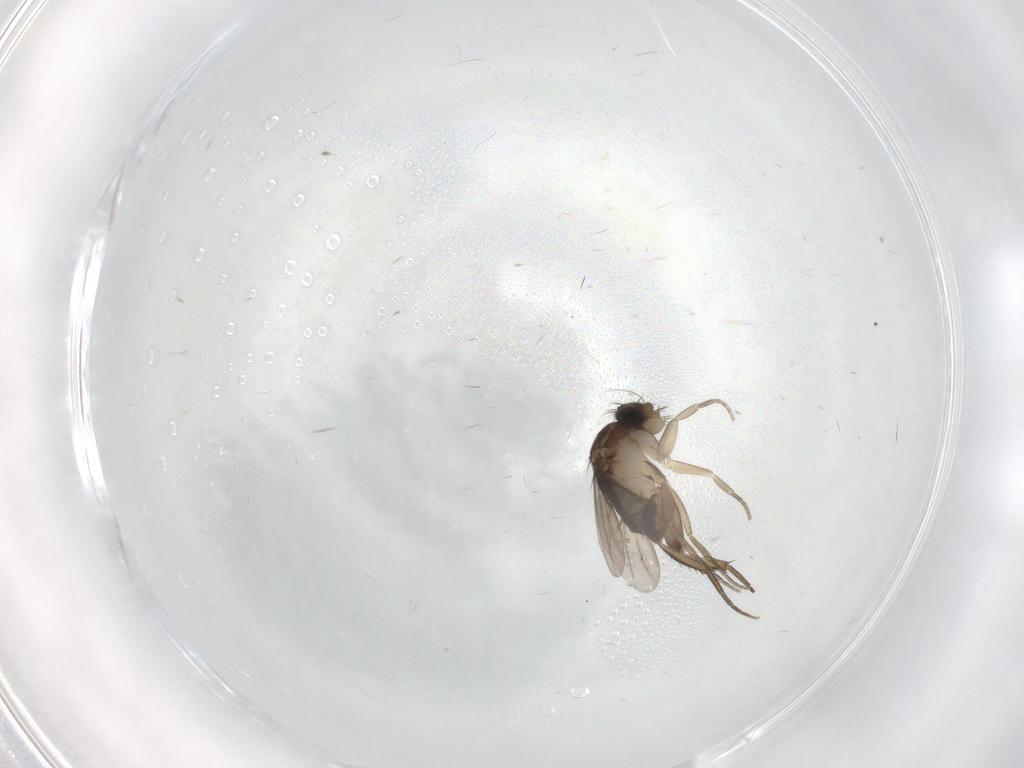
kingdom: Animalia
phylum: Arthropoda
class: Insecta
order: Diptera
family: Phoridae
